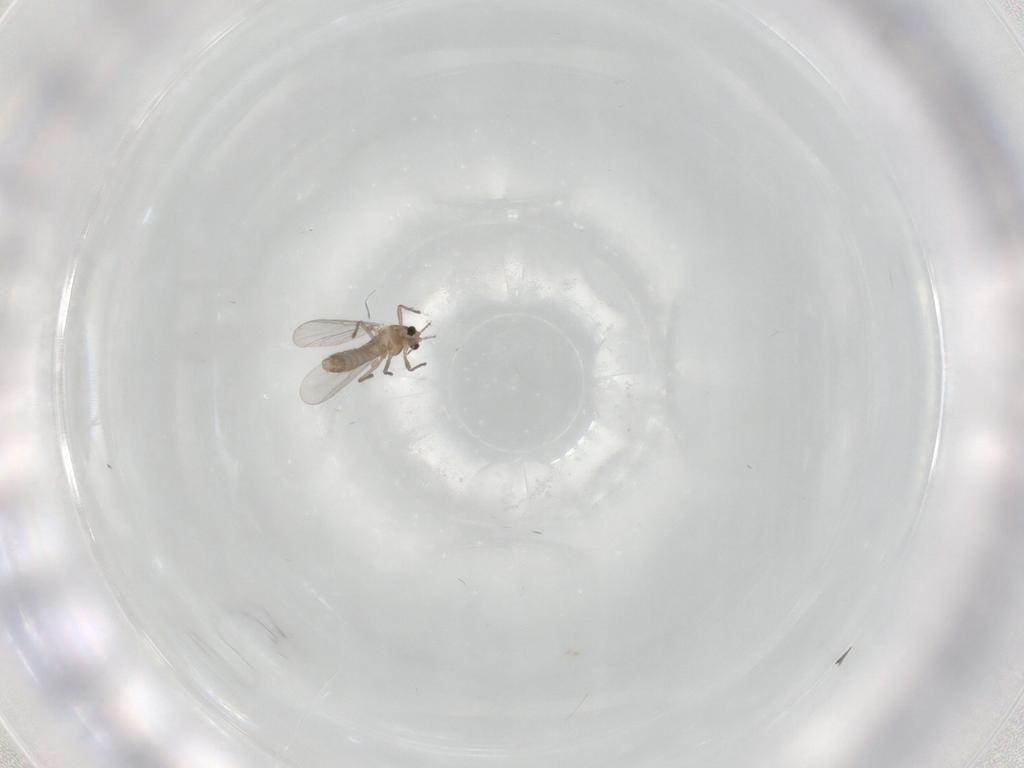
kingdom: Animalia
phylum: Arthropoda
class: Insecta
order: Diptera
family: Chironomidae
